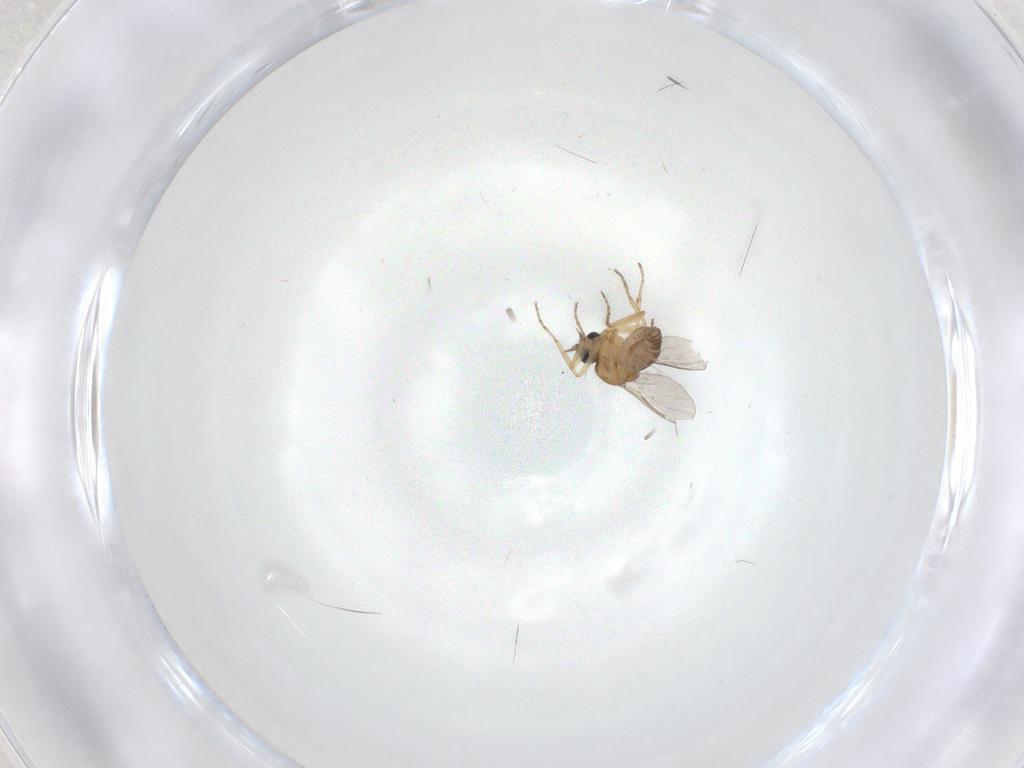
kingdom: Animalia
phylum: Arthropoda
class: Insecta
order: Diptera
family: Ceratopogonidae
